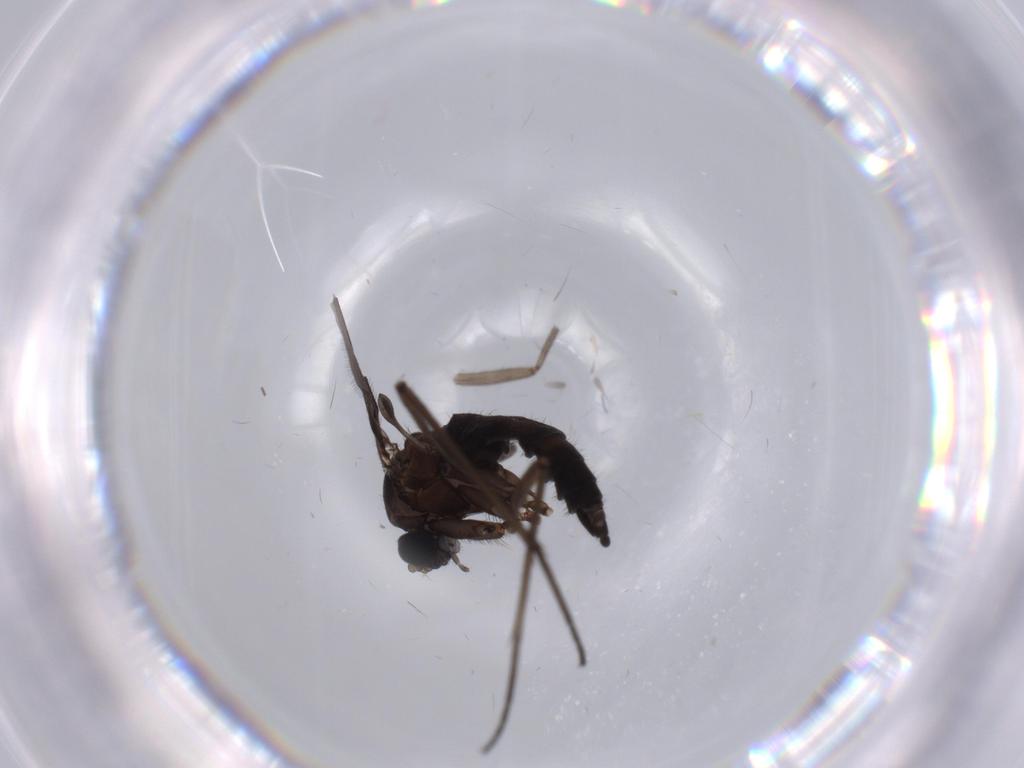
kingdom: Animalia
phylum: Arthropoda
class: Insecta
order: Diptera
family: Sciaridae
